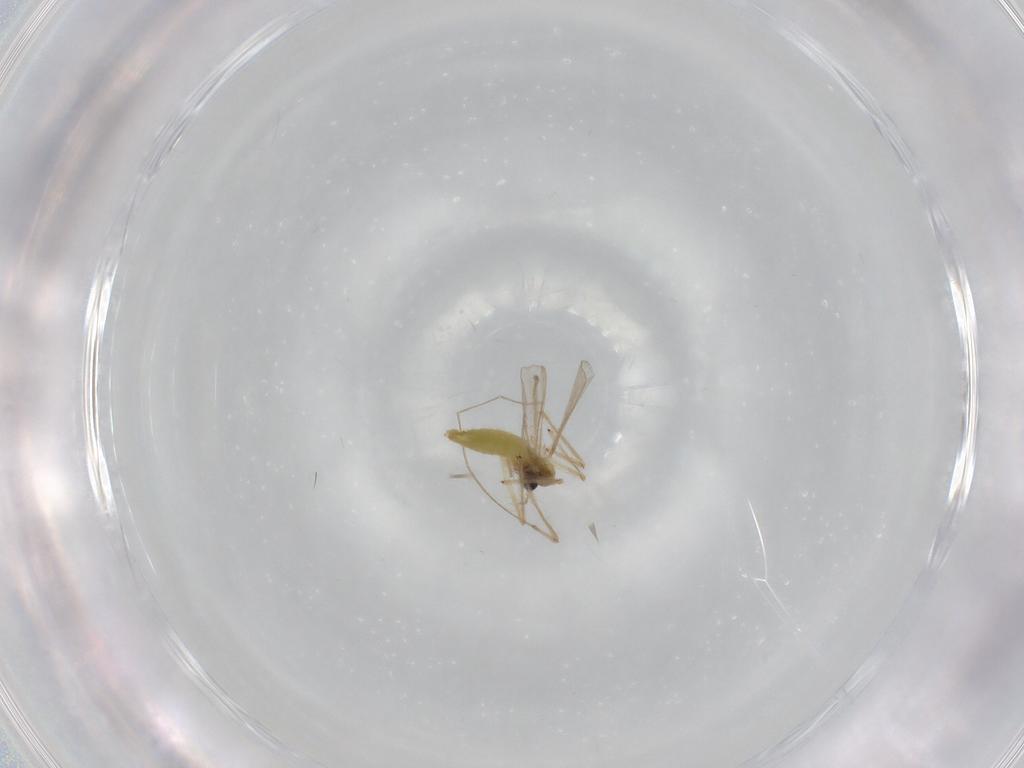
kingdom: Animalia
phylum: Arthropoda
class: Insecta
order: Diptera
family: Chironomidae
